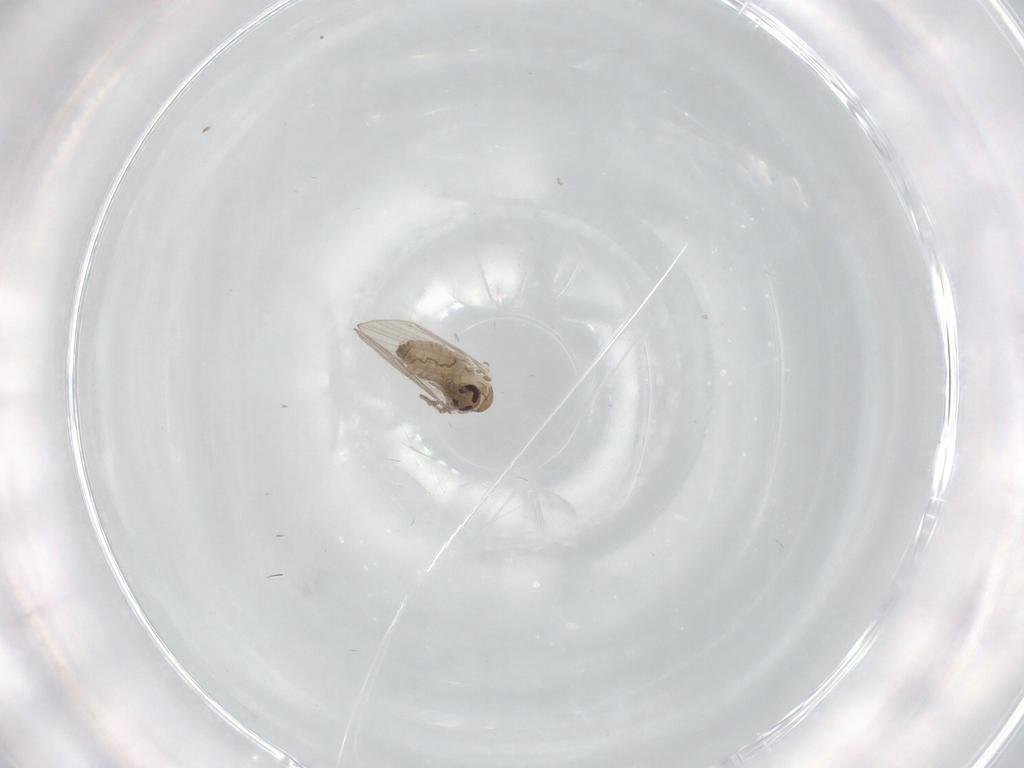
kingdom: Animalia
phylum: Arthropoda
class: Insecta
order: Diptera
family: Psychodidae
